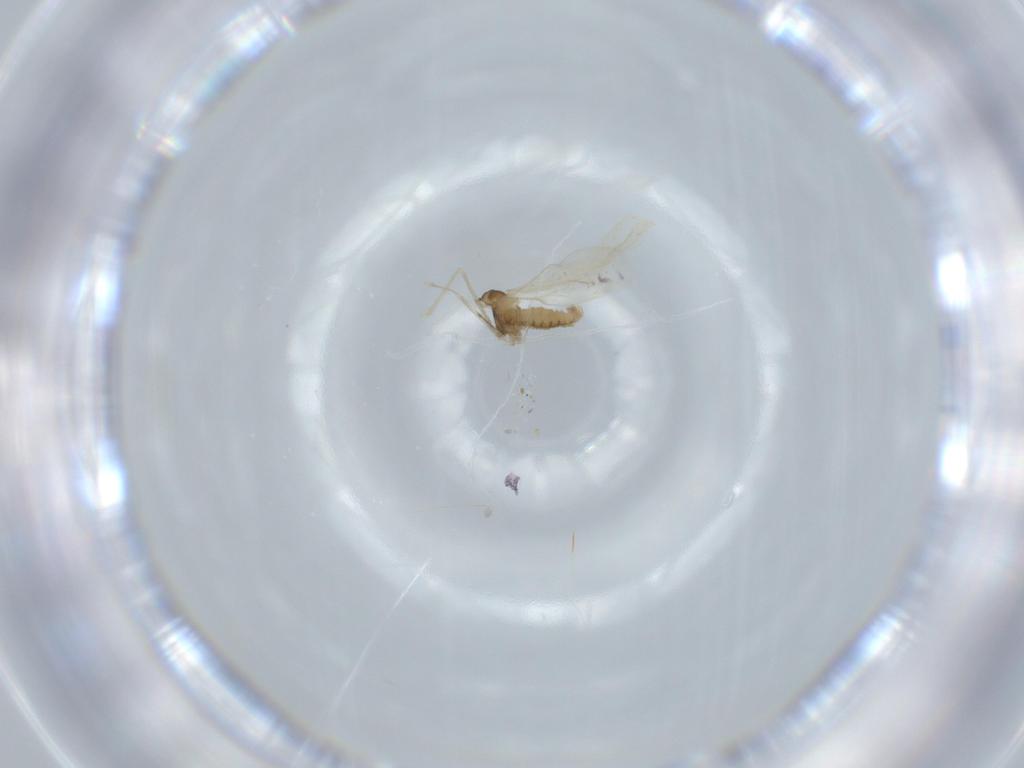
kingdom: Animalia
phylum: Arthropoda
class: Insecta
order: Diptera
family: Cecidomyiidae
